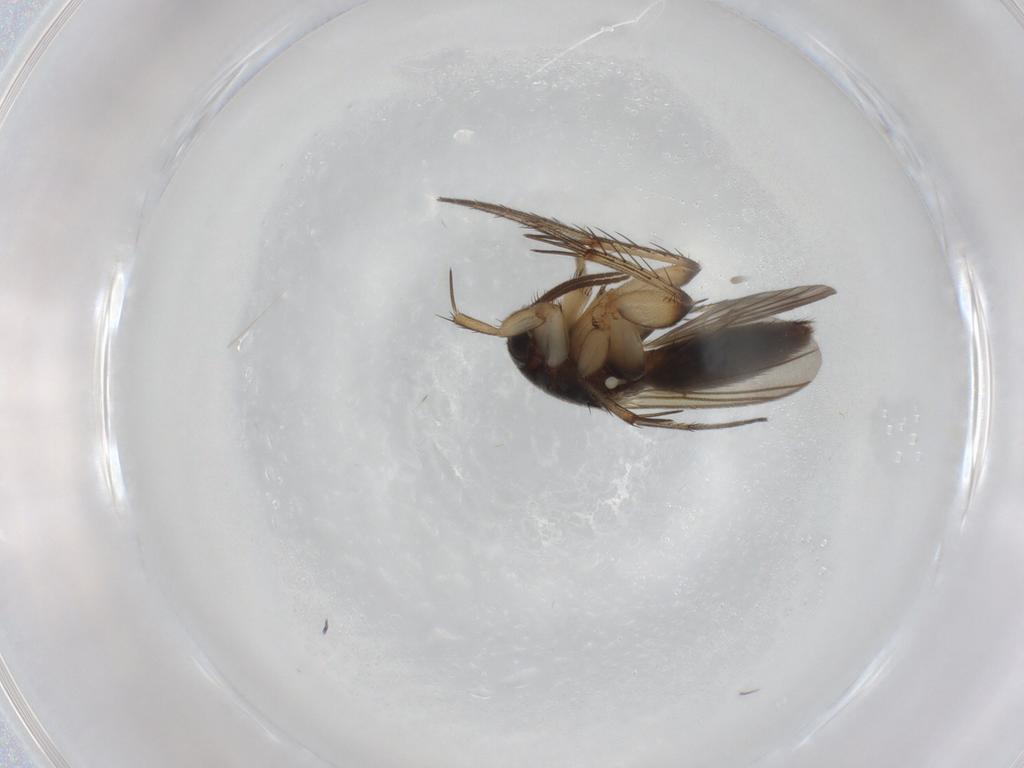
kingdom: Animalia
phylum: Arthropoda
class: Insecta
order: Diptera
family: Mycetophilidae
